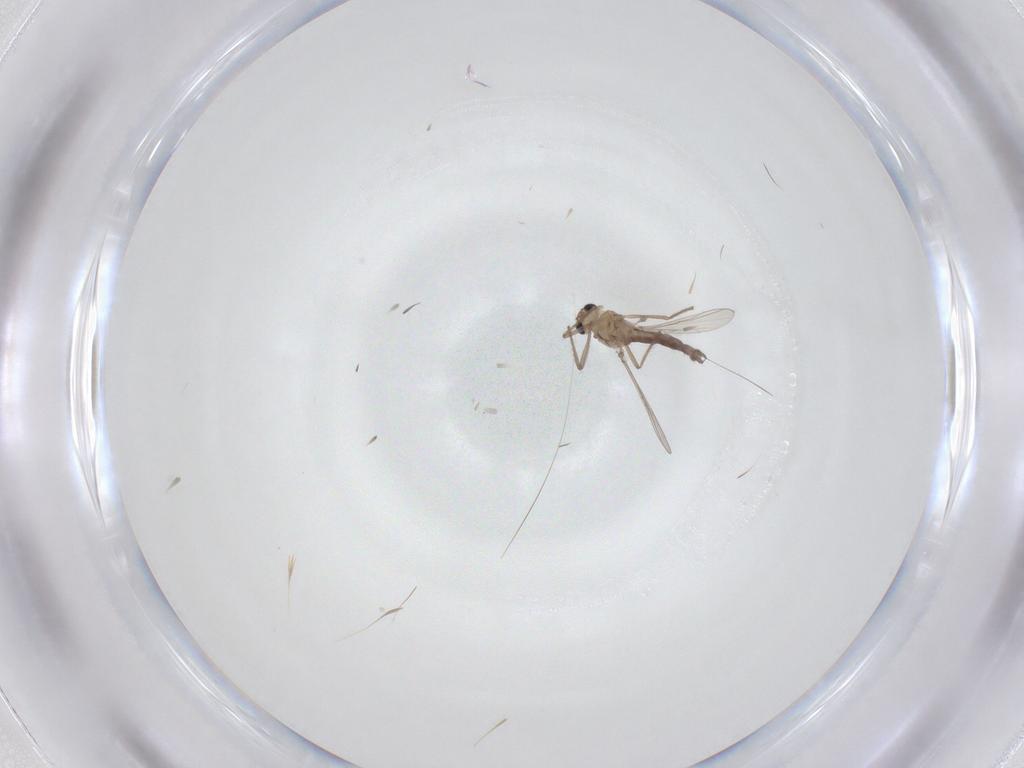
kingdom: Animalia
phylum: Arthropoda
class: Insecta
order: Diptera
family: Chironomidae
